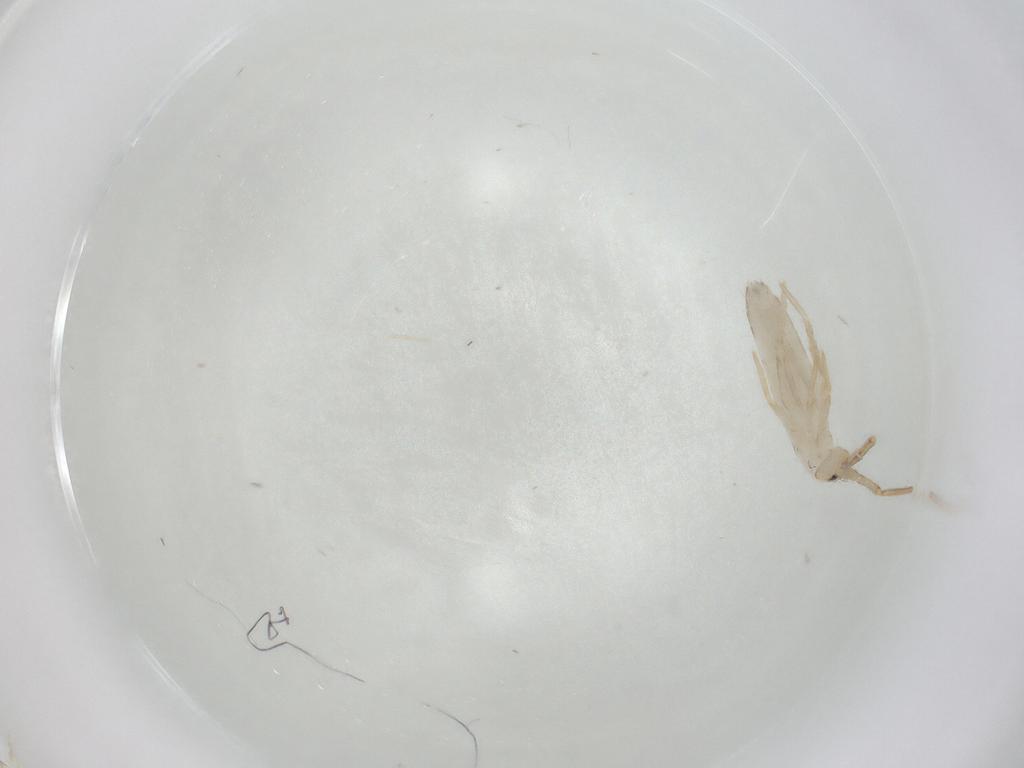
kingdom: Animalia
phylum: Arthropoda
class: Collembola
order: Entomobryomorpha
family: Entomobryidae
